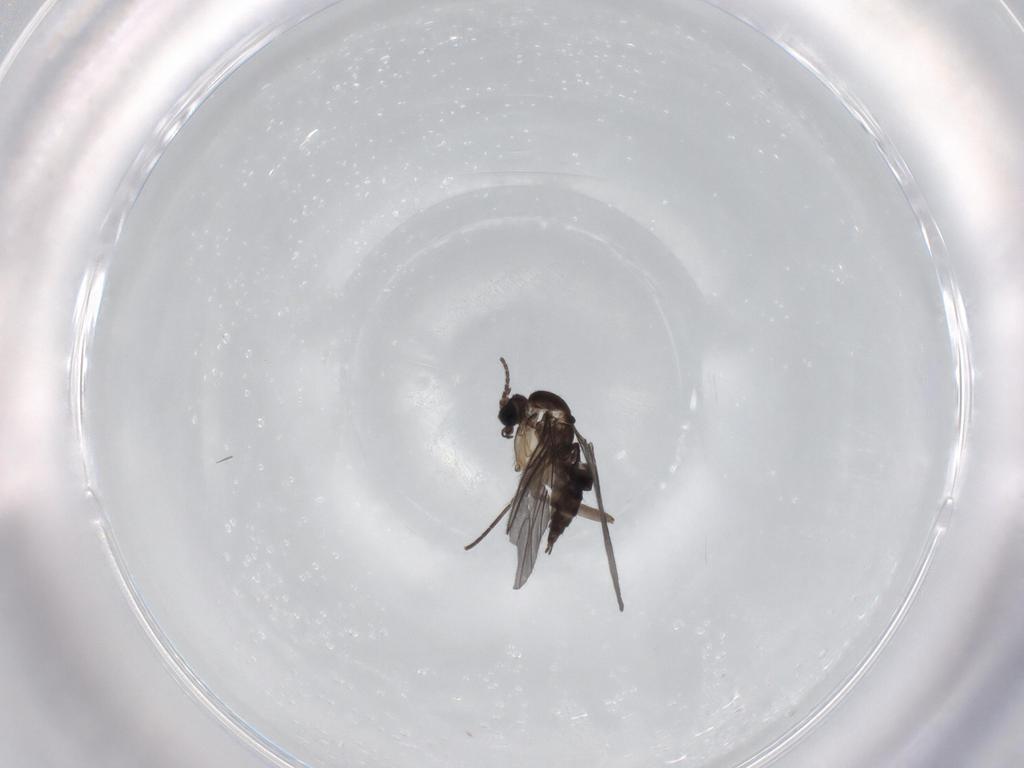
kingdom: Animalia
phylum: Arthropoda
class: Insecta
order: Diptera
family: Sciaridae
